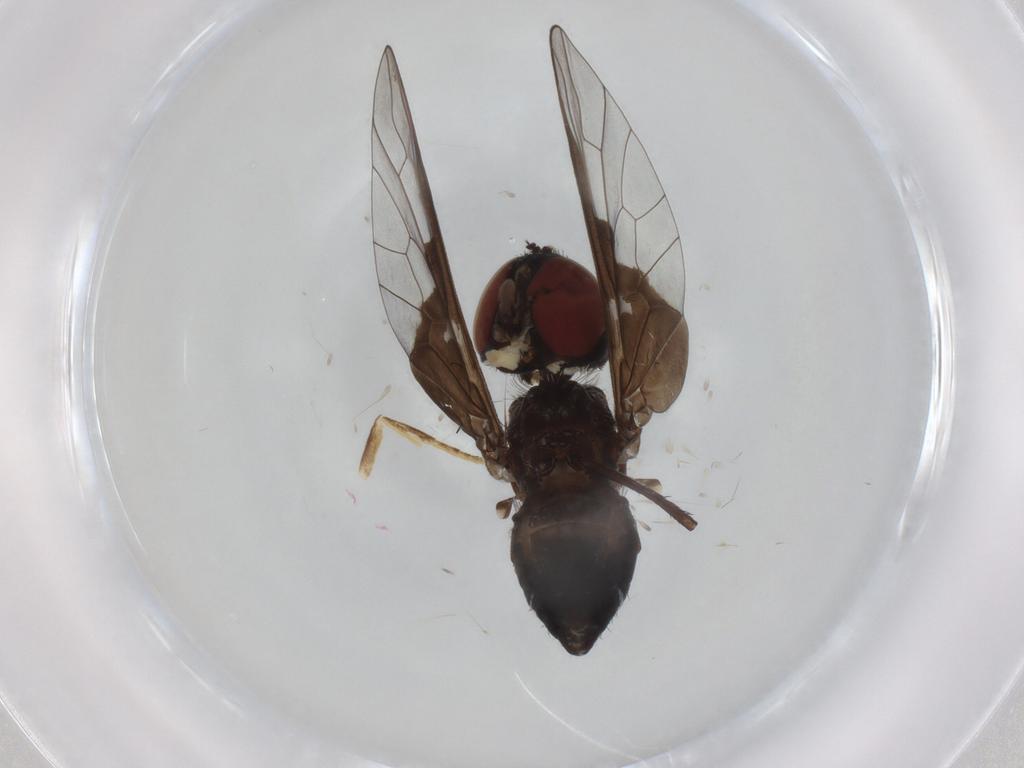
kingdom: Animalia
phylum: Arthropoda
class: Insecta
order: Diptera
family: Bombyliidae
